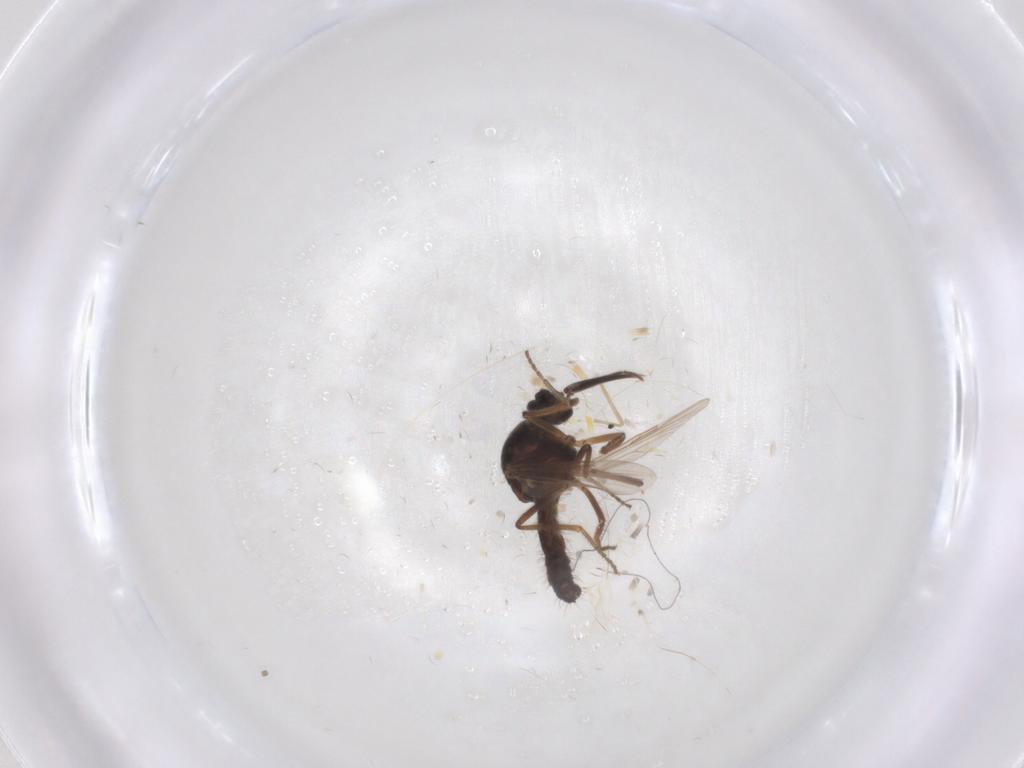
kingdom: Animalia
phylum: Arthropoda
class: Insecta
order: Diptera
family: Ceratopogonidae
